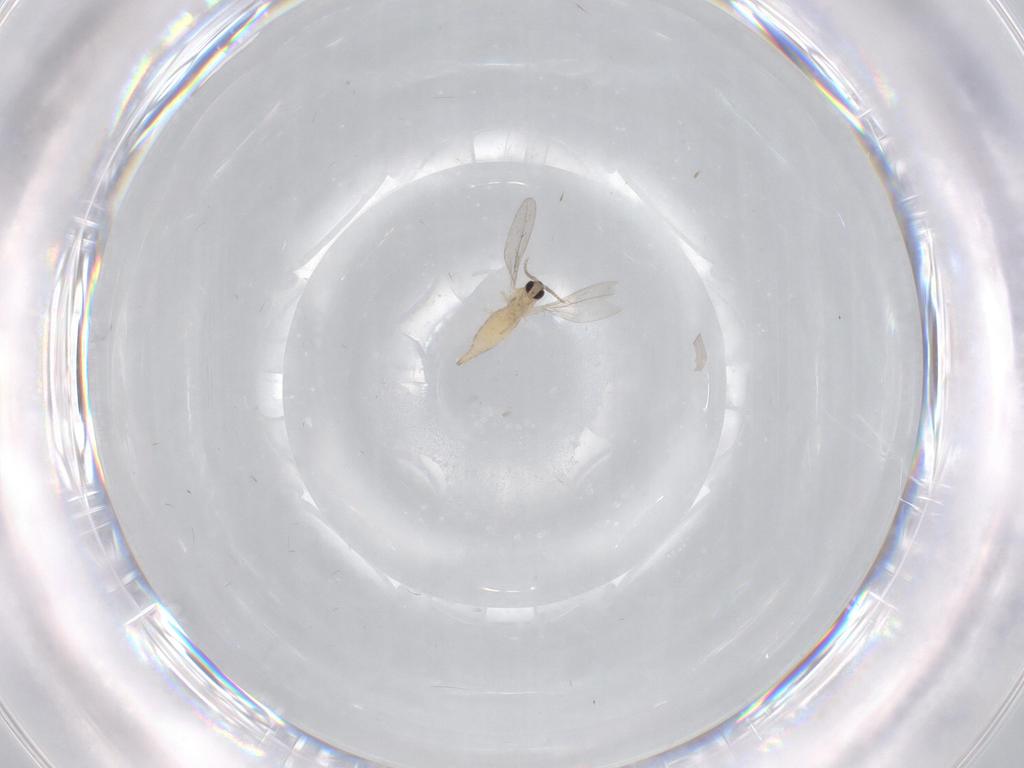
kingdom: Animalia
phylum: Arthropoda
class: Insecta
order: Diptera
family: Cecidomyiidae
